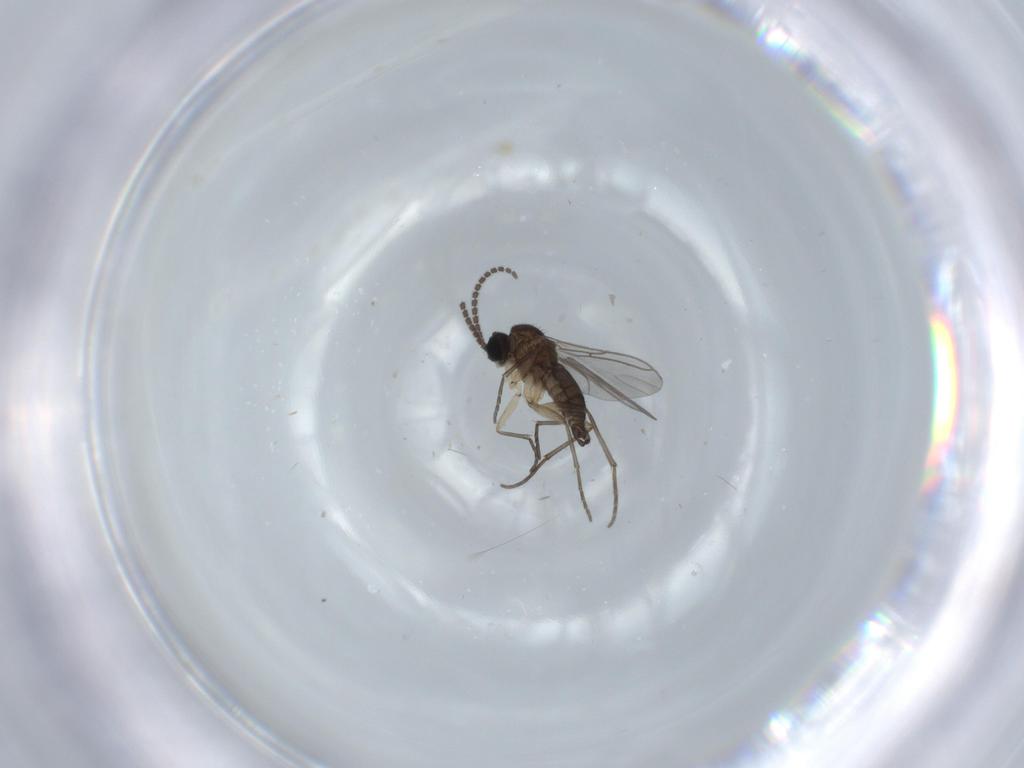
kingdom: Animalia
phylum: Arthropoda
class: Insecta
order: Diptera
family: Sciaridae
